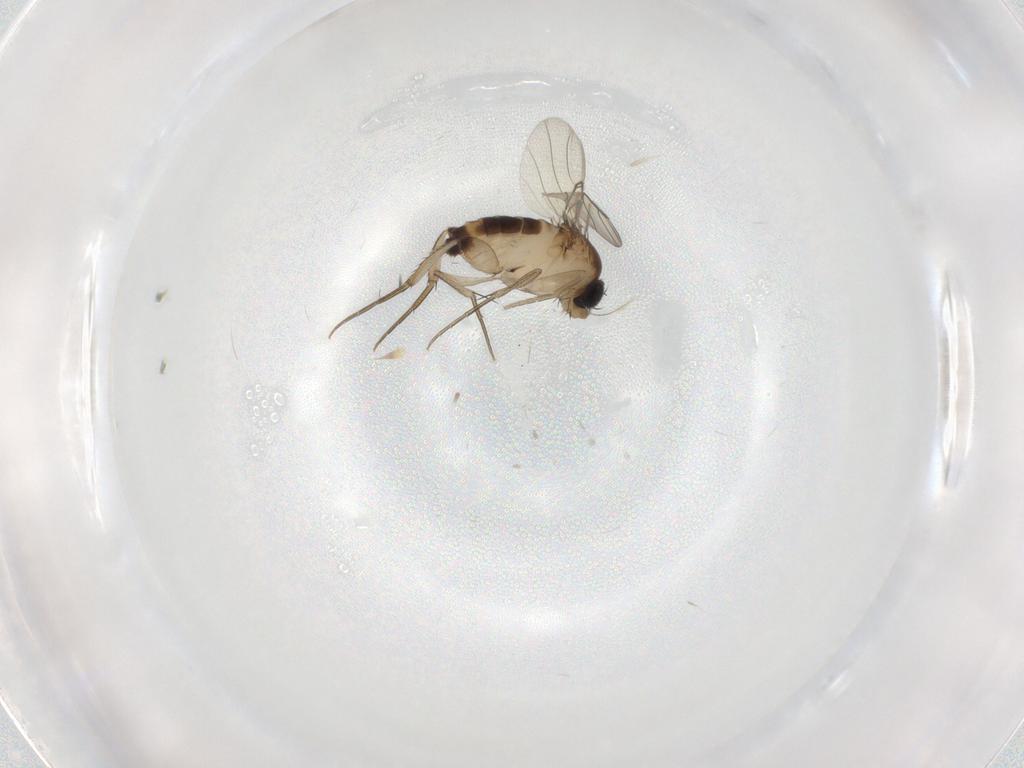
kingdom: Animalia
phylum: Arthropoda
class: Insecta
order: Diptera
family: Phoridae
